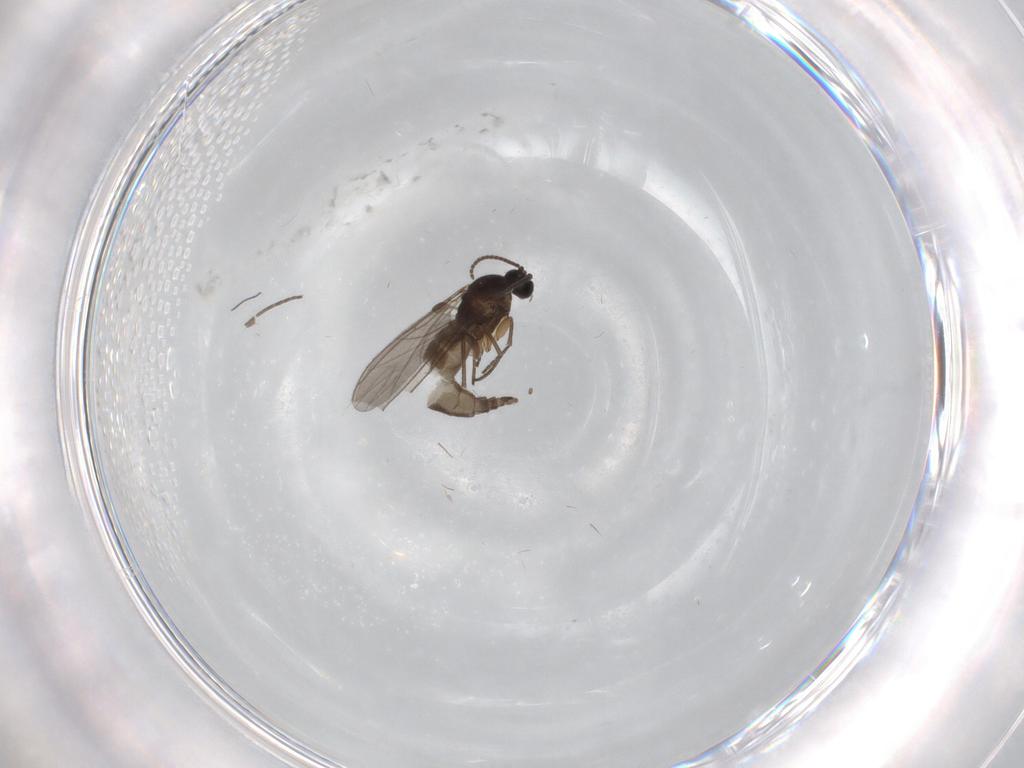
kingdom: Animalia
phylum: Arthropoda
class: Insecta
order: Diptera
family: Sciaridae
